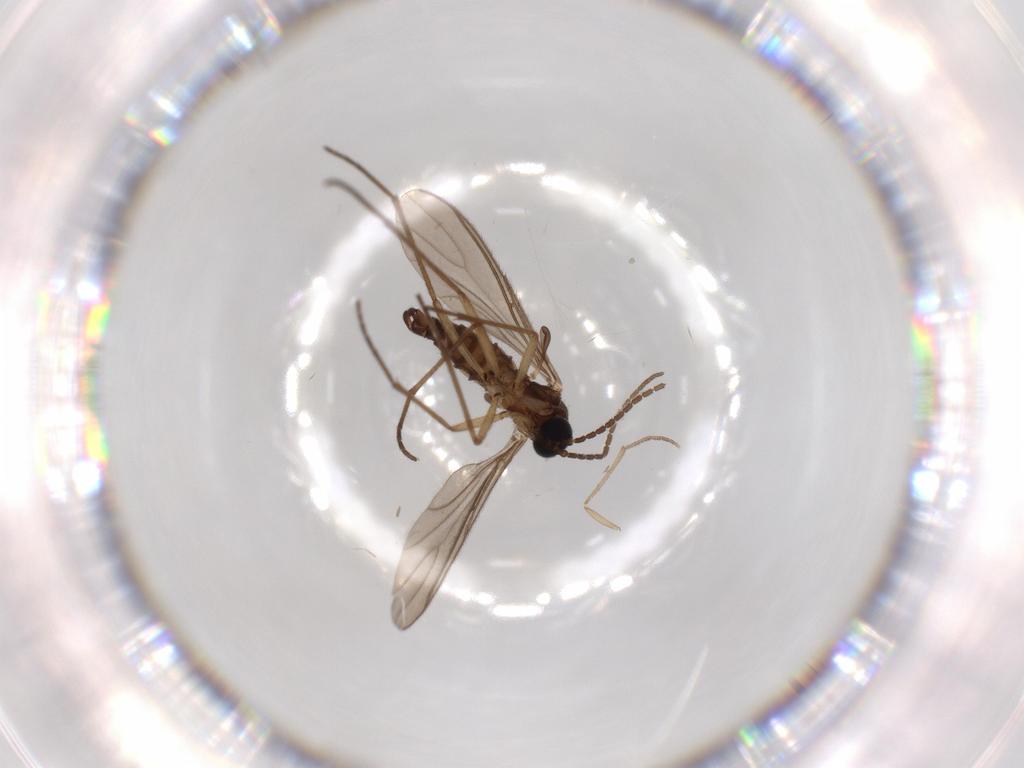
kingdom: Animalia
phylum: Arthropoda
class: Insecta
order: Diptera
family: Sciaridae
